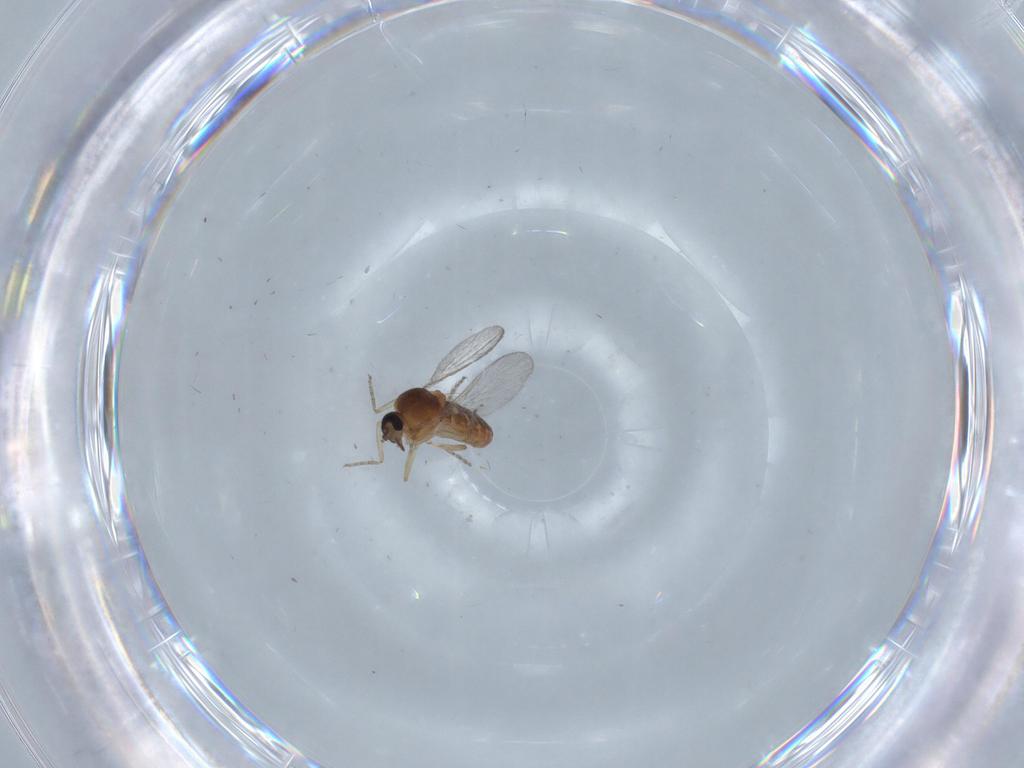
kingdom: Animalia
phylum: Arthropoda
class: Insecta
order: Diptera
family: Ceratopogonidae
